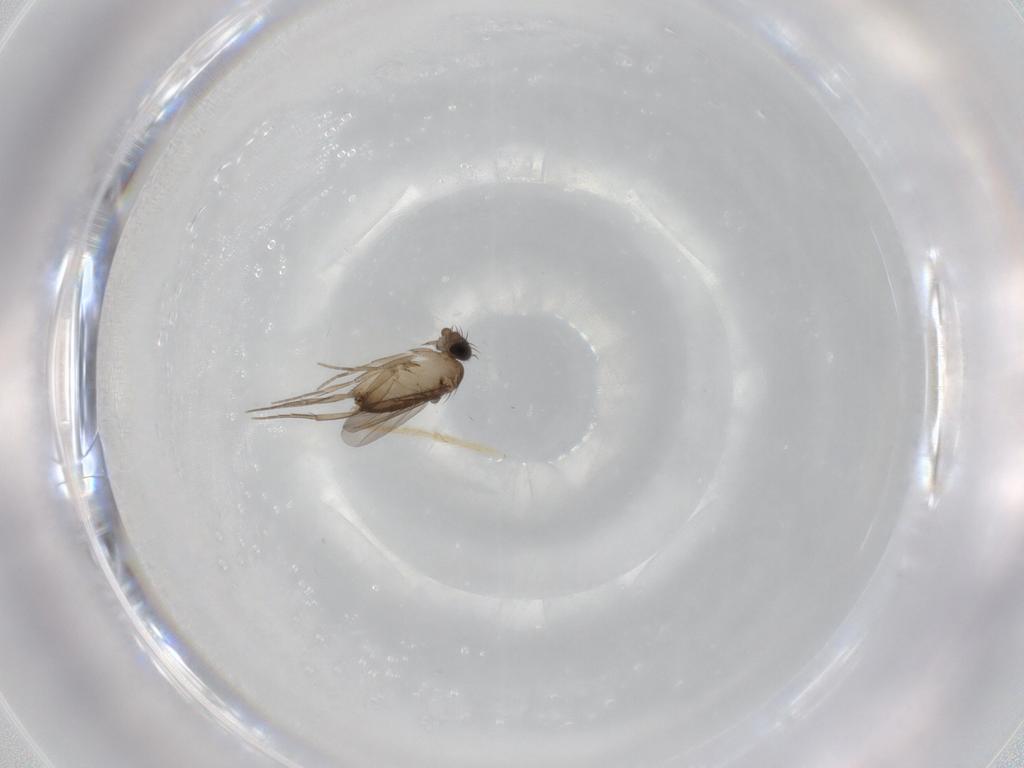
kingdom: Animalia
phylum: Arthropoda
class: Insecta
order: Diptera
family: Phoridae
